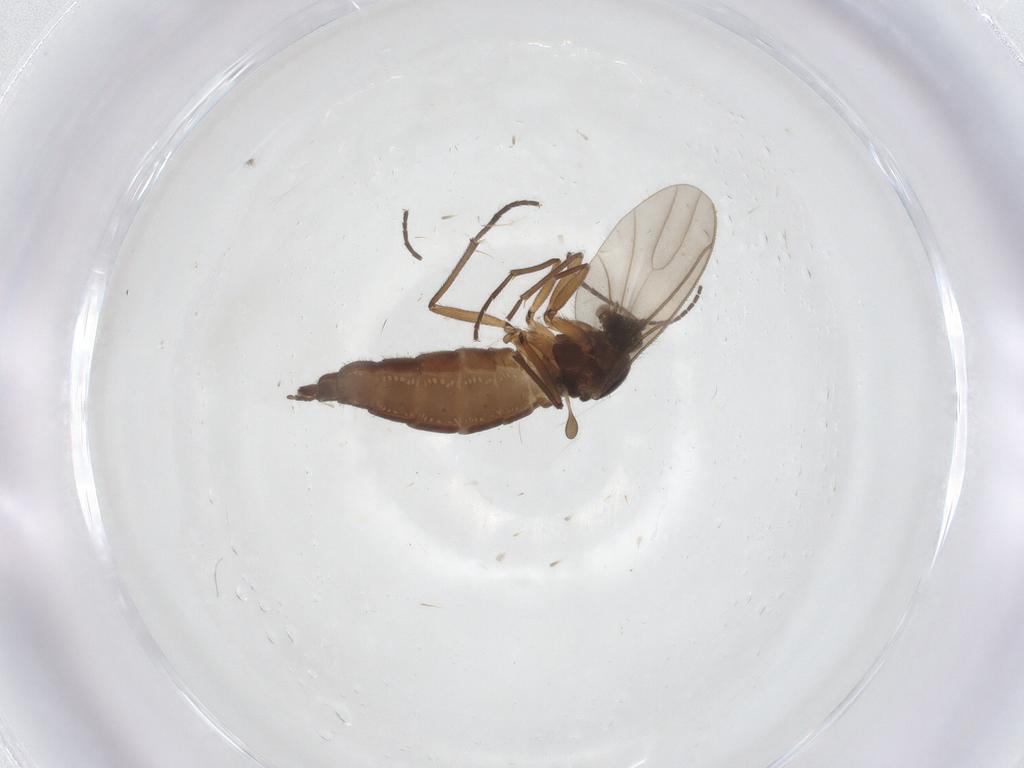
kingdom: Animalia
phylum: Arthropoda
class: Insecta
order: Diptera
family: Sciaridae
